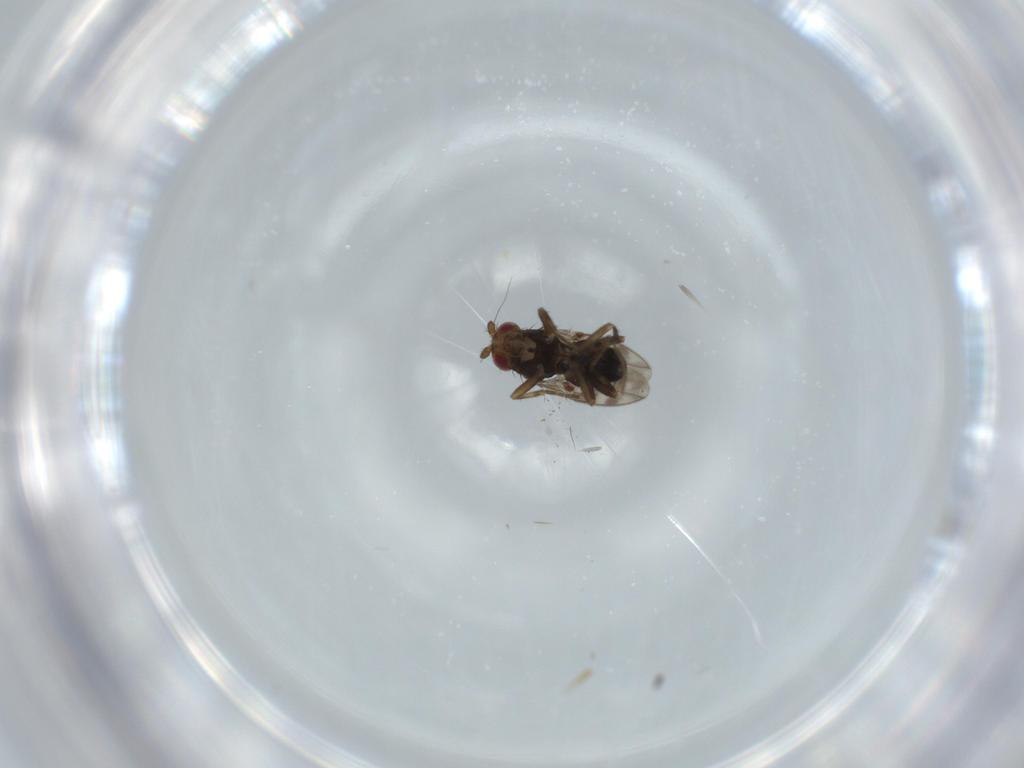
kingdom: Animalia
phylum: Arthropoda
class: Insecta
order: Diptera
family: Sphaeroceridae
